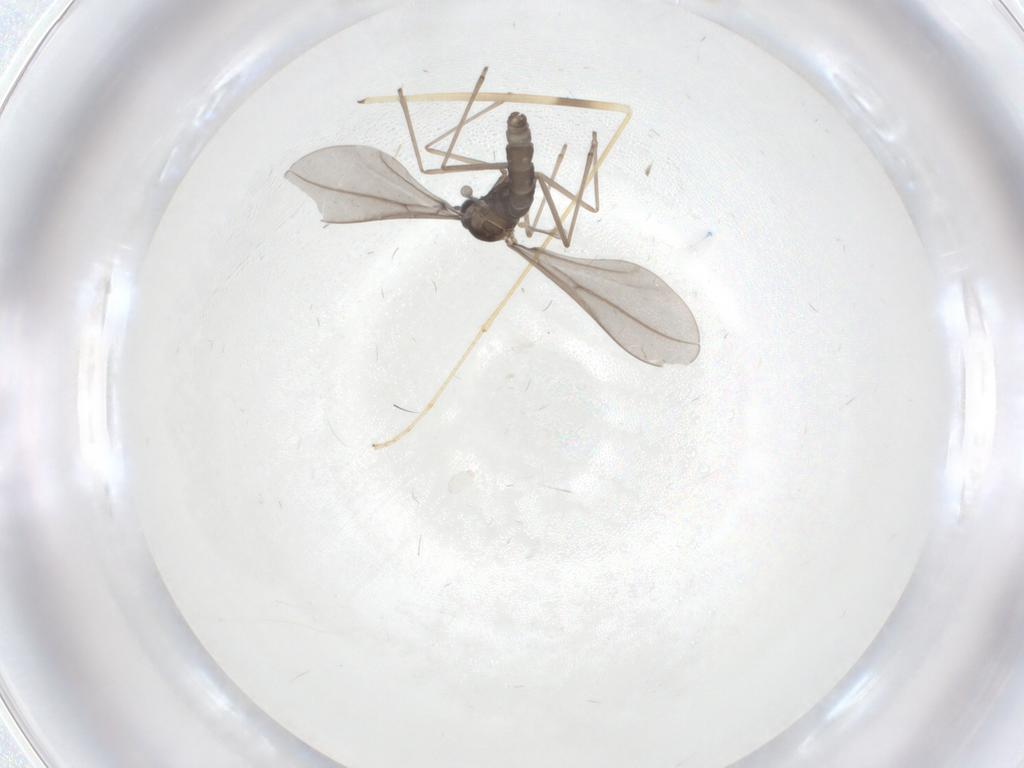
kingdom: Animalia
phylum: Arthropoda
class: Insecta
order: Diptera
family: Limoniidae
